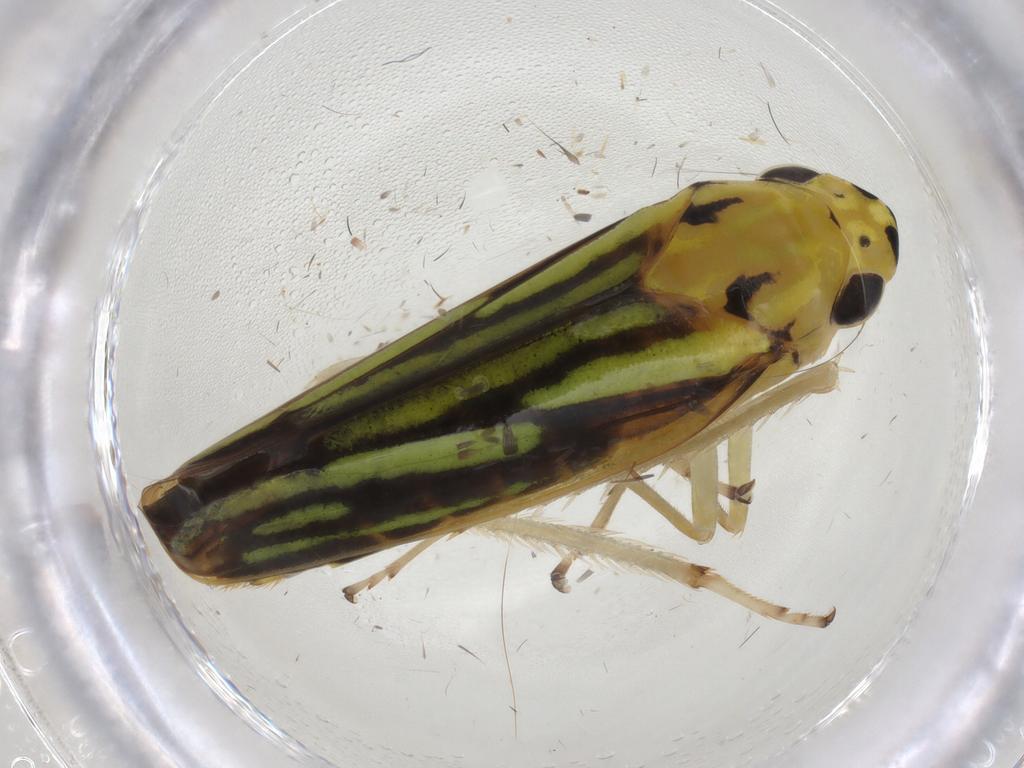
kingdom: Animalia
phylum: Arthropoda
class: Insecta
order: Hemiptera
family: Cicadellidae
